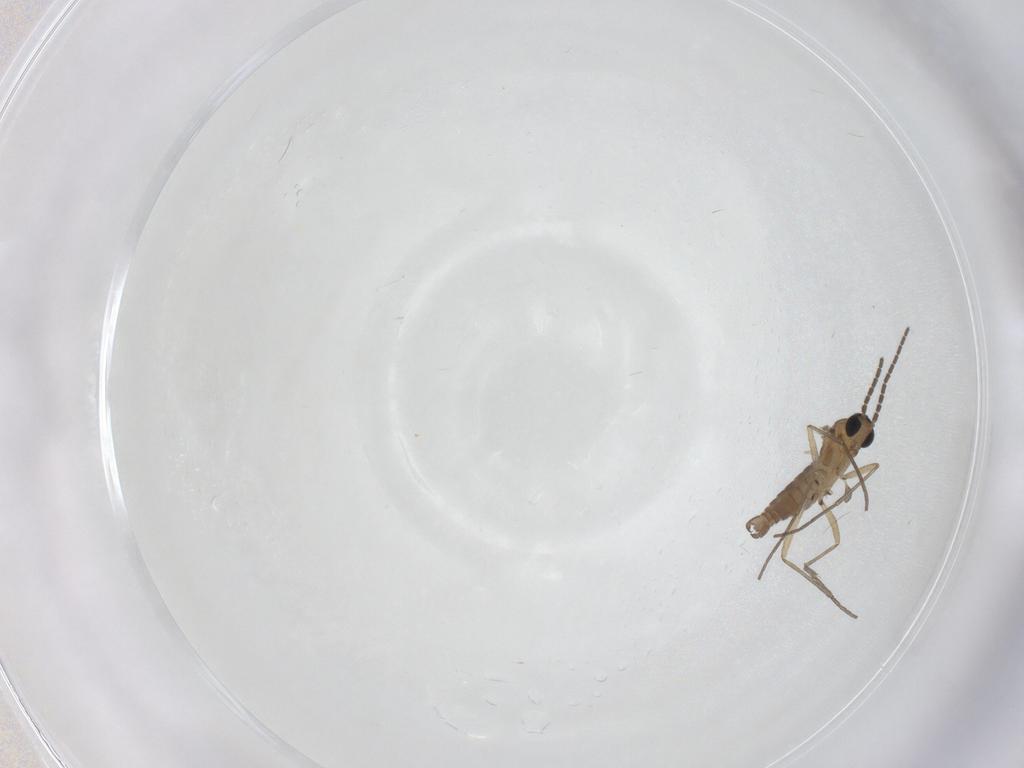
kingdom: Animalia
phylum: Arthropoda
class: Insecta
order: Diptera
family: Sciaridae
